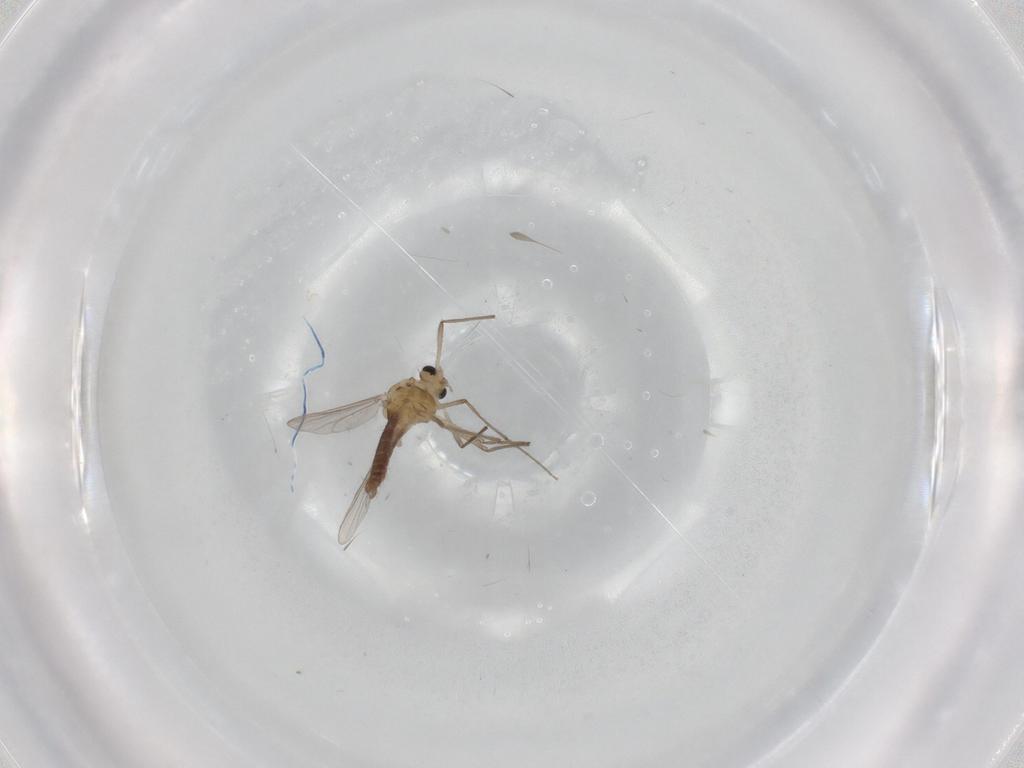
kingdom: Animalia
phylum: Arthropoda
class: Insecta
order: Diptera
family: Chironomidae
